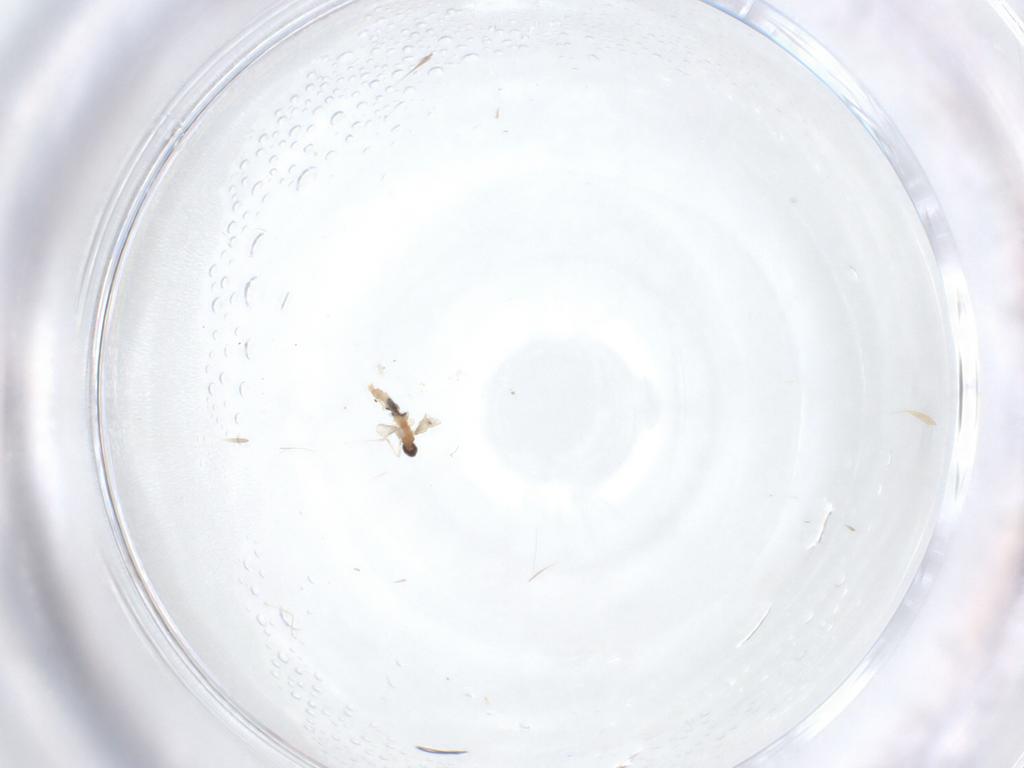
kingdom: Animalia
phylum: Arthropoda
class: Insecta
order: Diptera
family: Cecidomyiidae
